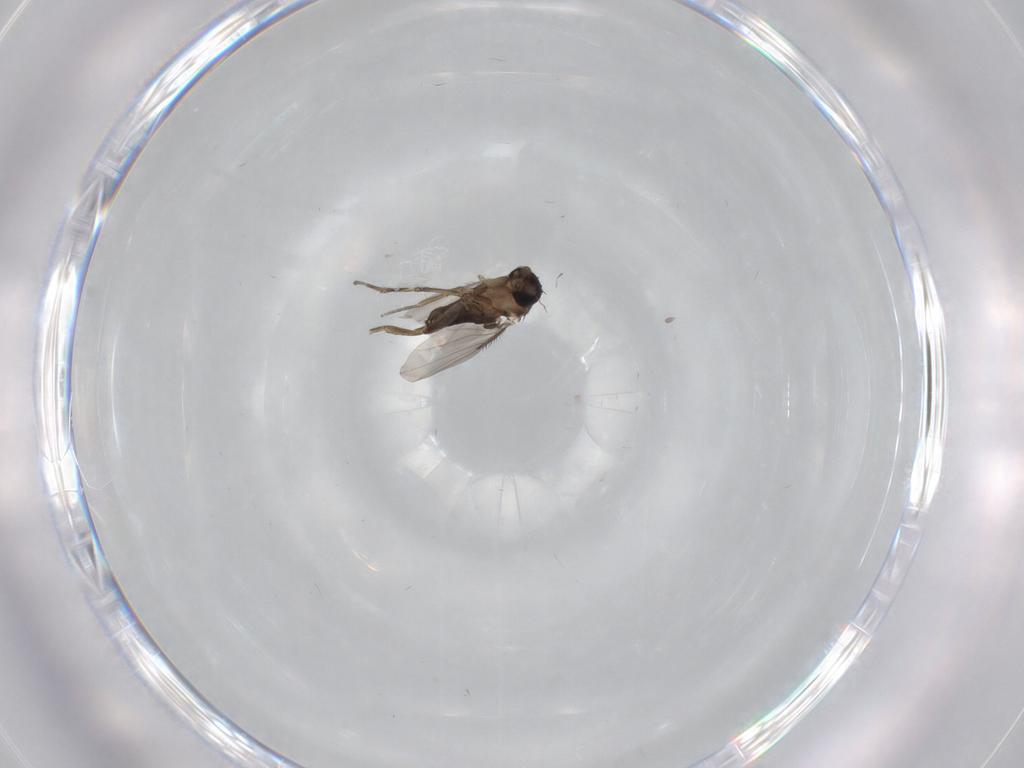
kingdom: Animalia
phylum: Arthropoda
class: Insecta
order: Diptera
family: Phoridae
